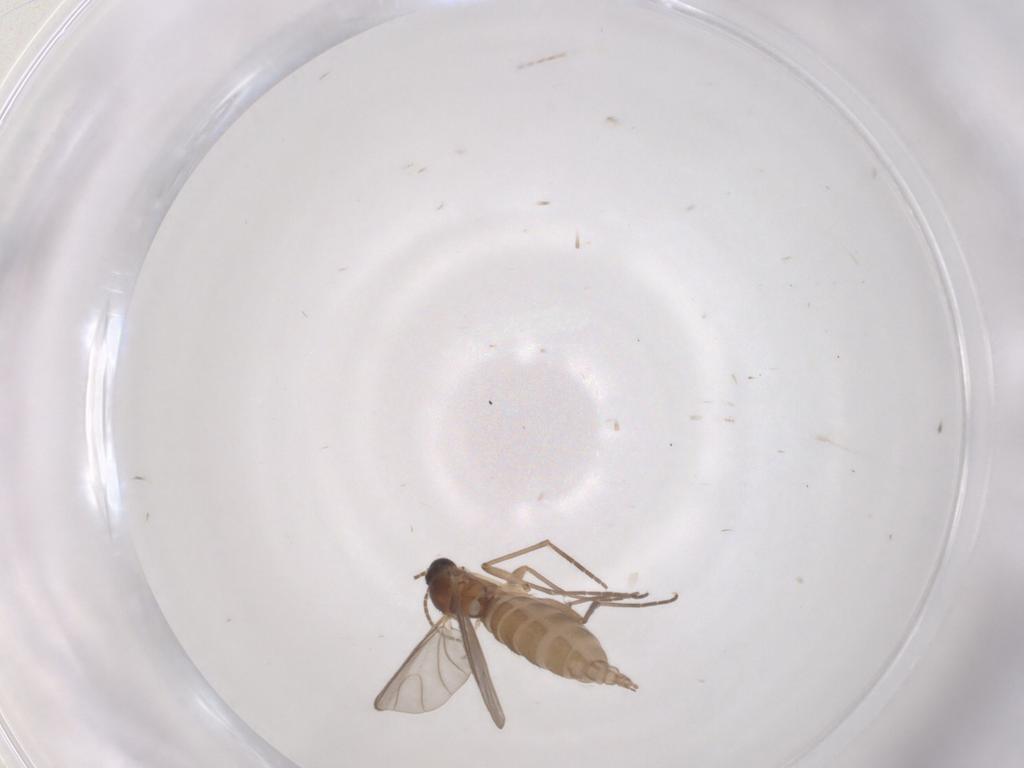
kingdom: Animalia
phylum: Arthropoda
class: Insecta
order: Diptera
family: Sciaridae
